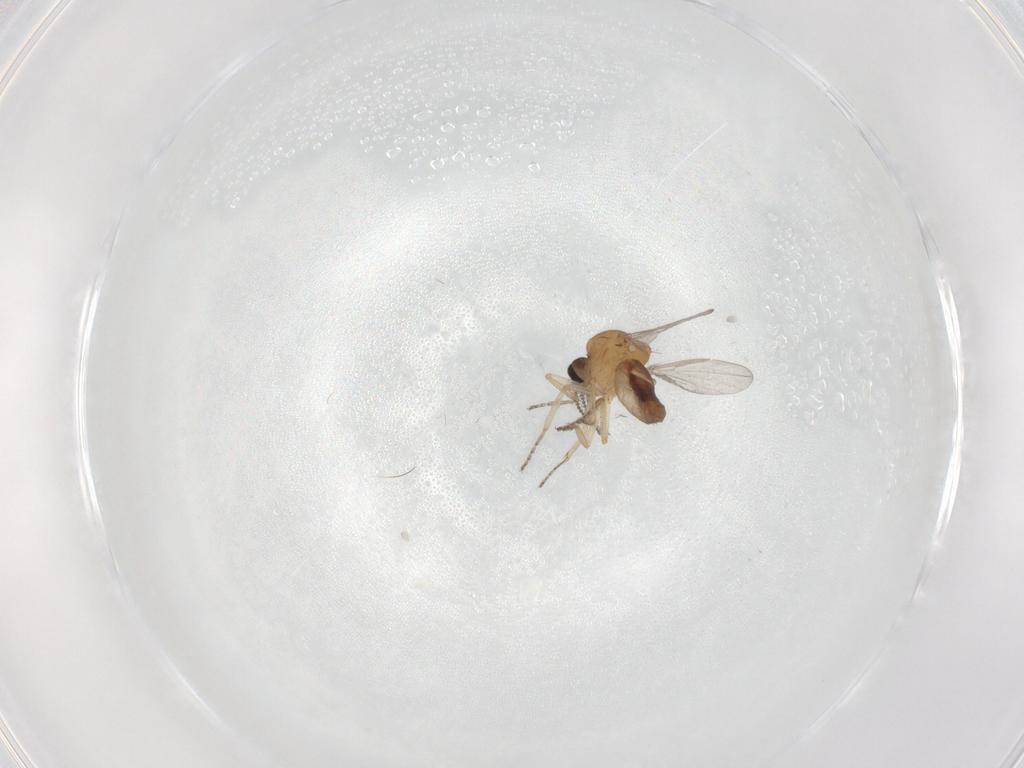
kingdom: Animalia
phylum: Arthropoda
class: Insecta
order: Diptera
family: Ceratopogonidae
